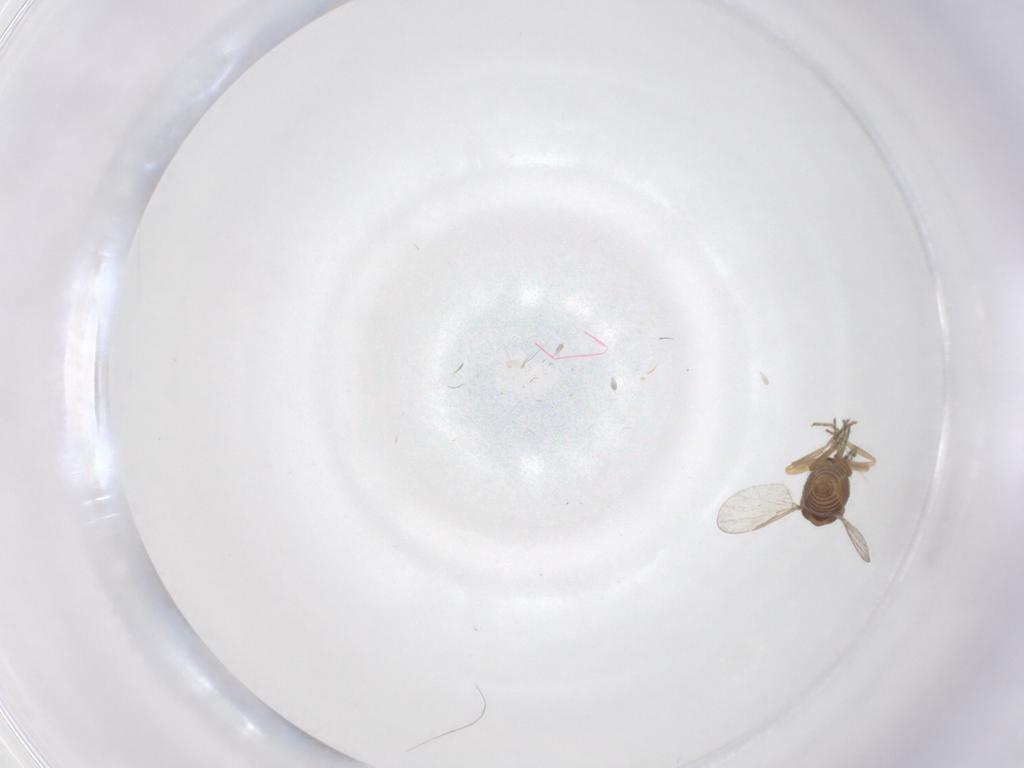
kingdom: Animalia
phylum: Arthropoda
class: Insecta
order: Diptera
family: Ceratopogonidae
